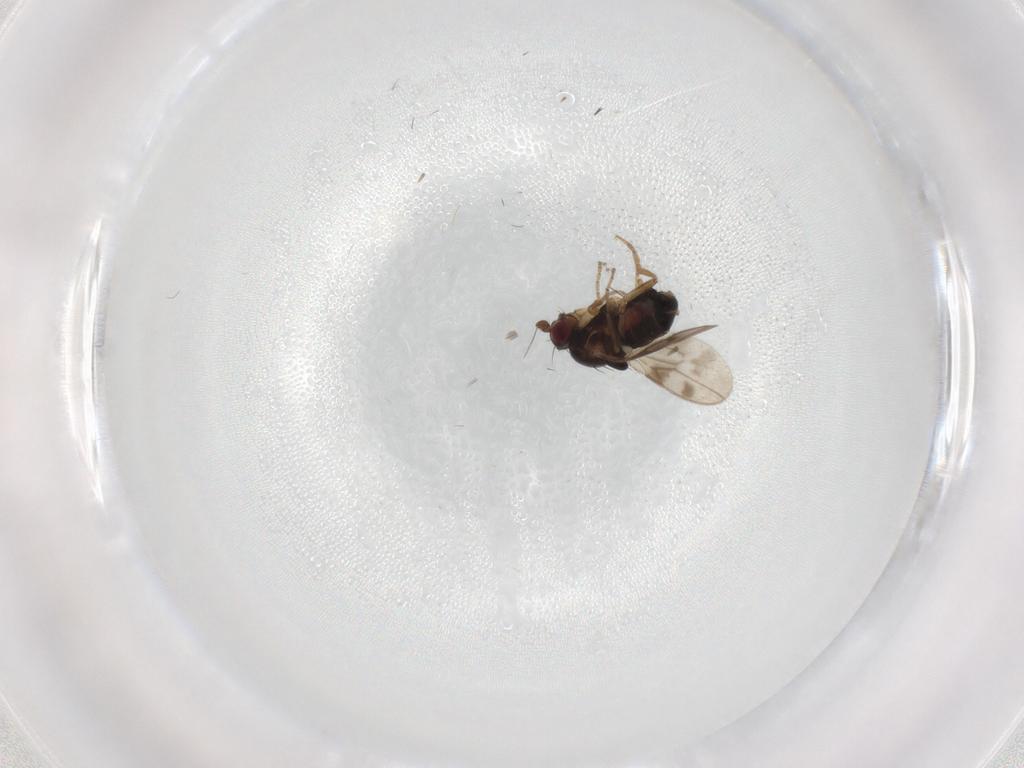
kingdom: Animalia
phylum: Arthropoda
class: Insecta
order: Diptera
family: Sphaeroceridae
